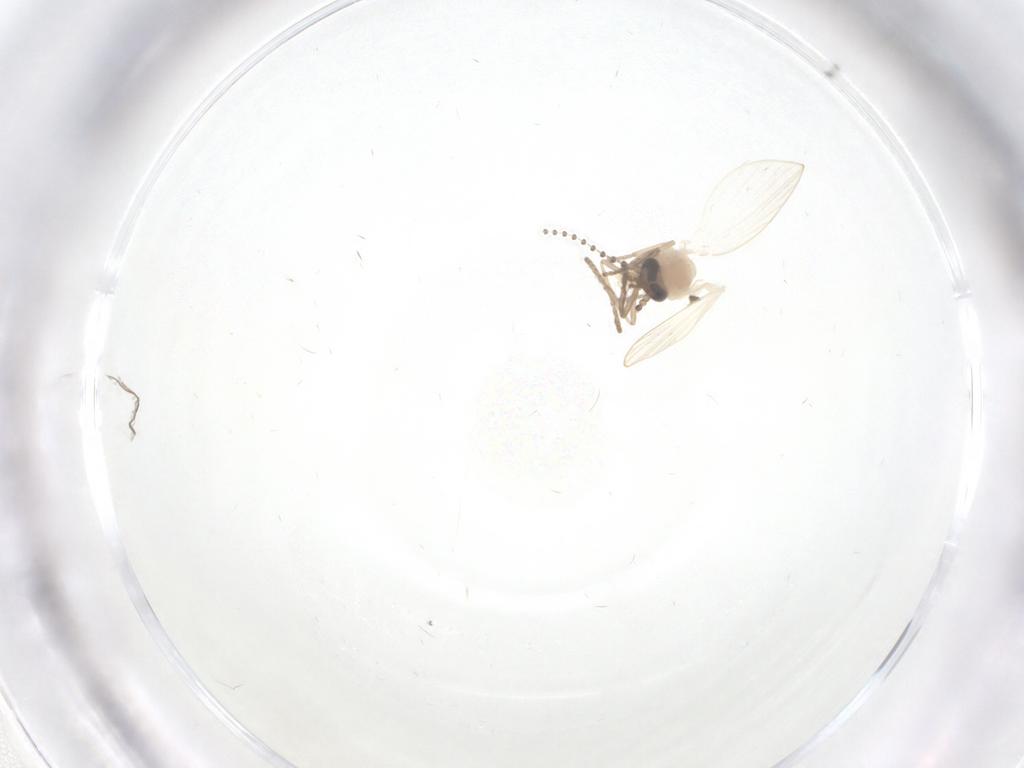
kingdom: Animalia
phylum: Arthropoda
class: Insecta
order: Diptera
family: Psychodidae
